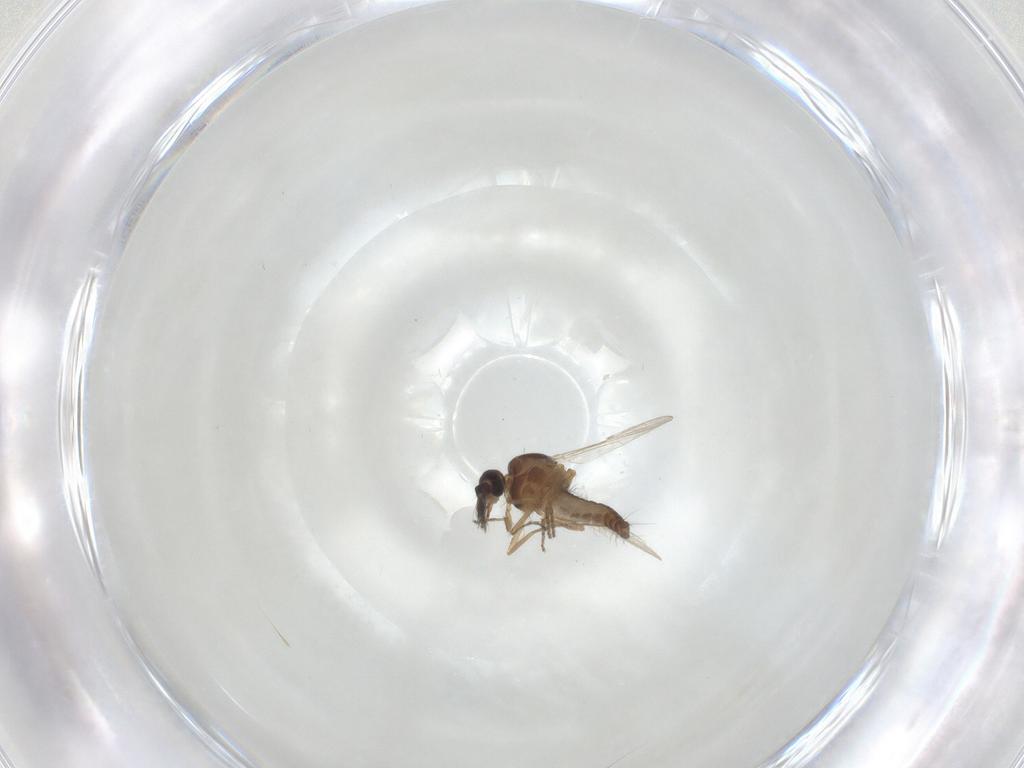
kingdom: Animalia
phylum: Arthropoda
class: Insecta
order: Diptera
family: Ceratopogonidae
